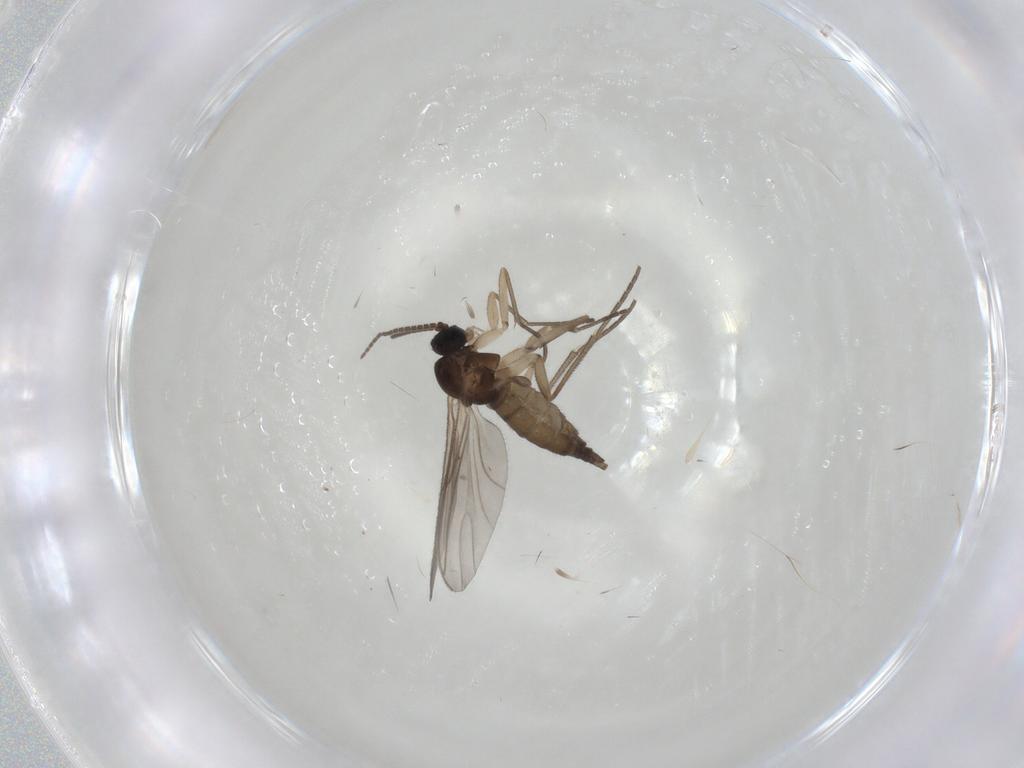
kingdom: Animalia
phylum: Arthropoda
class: Insecta
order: Diptera
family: Sciaridae
